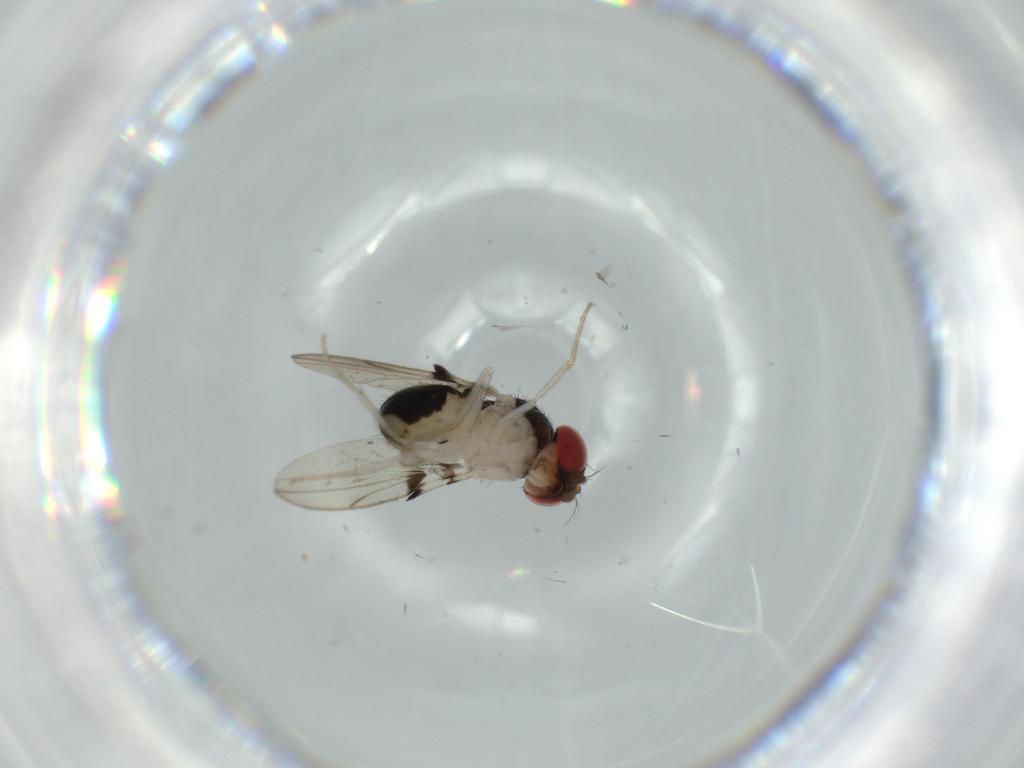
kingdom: Animalia
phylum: Arthropoda
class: Insecta
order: Diptera
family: Drosophilidae
